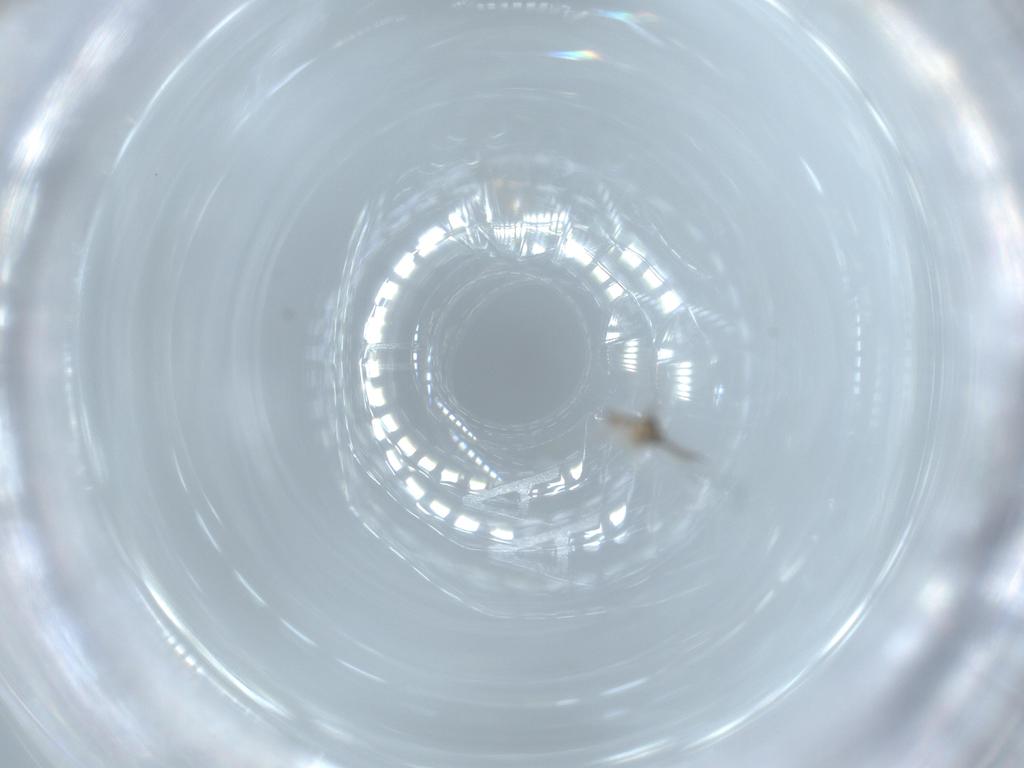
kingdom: Animalia
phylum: Arthropoda
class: Insecta
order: Diptera
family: Cecidomyiidae
